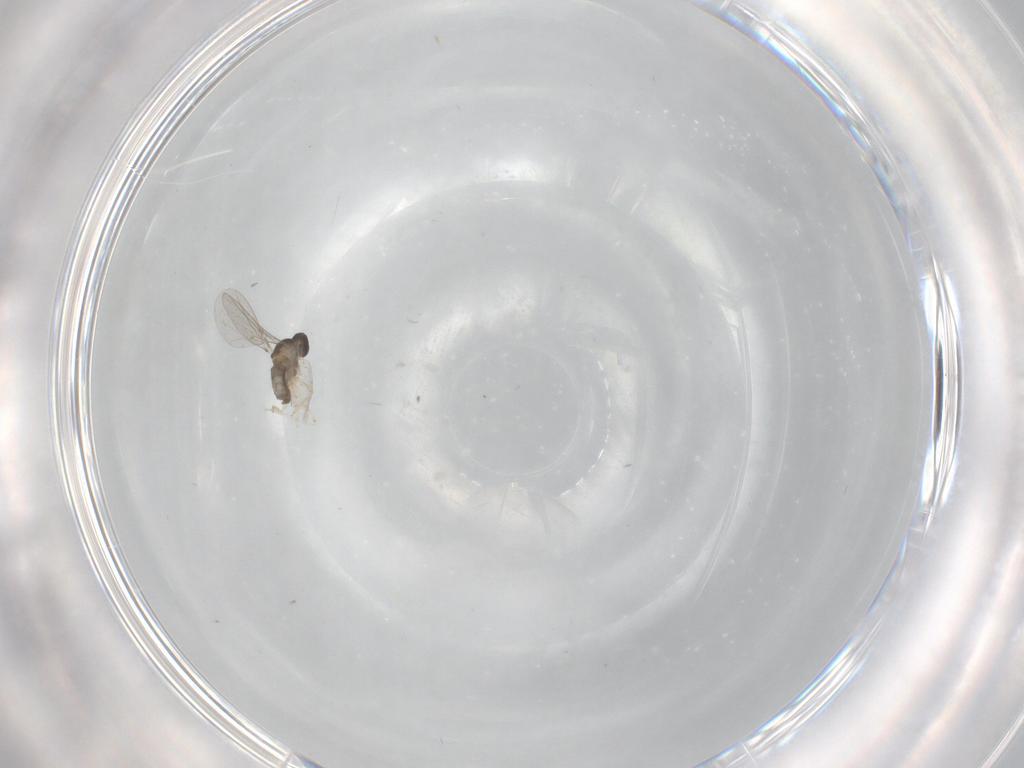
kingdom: Animalia
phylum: Arthropoda
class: Insecta
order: Diptera
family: Cecidomyiidae
